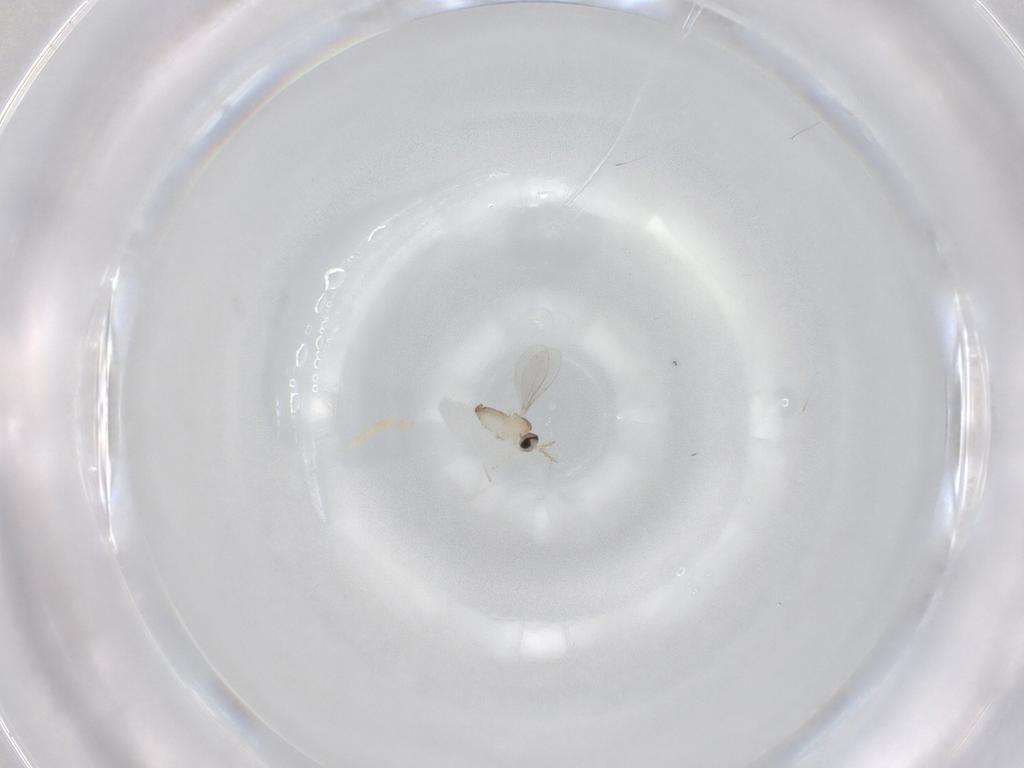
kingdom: Animalia
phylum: Arthropoda
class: Insecta
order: Diptera
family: Cecidomyiidae
